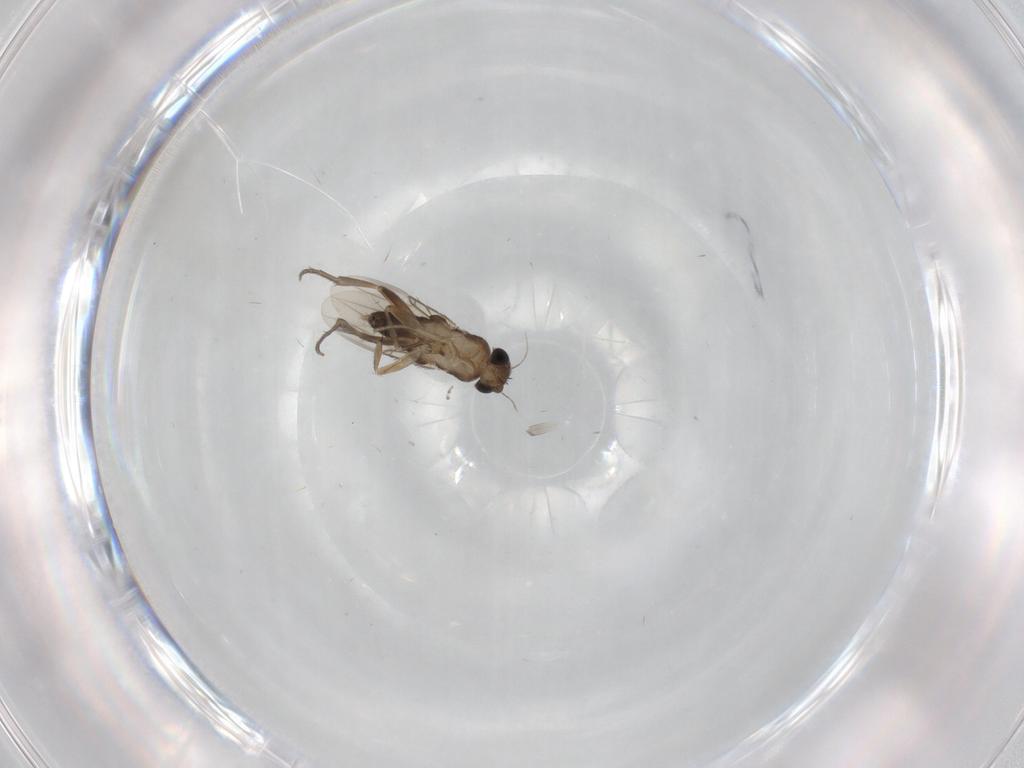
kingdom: Animalia
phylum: Arthropoda
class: Insecta
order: Diptera
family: Phoridae
